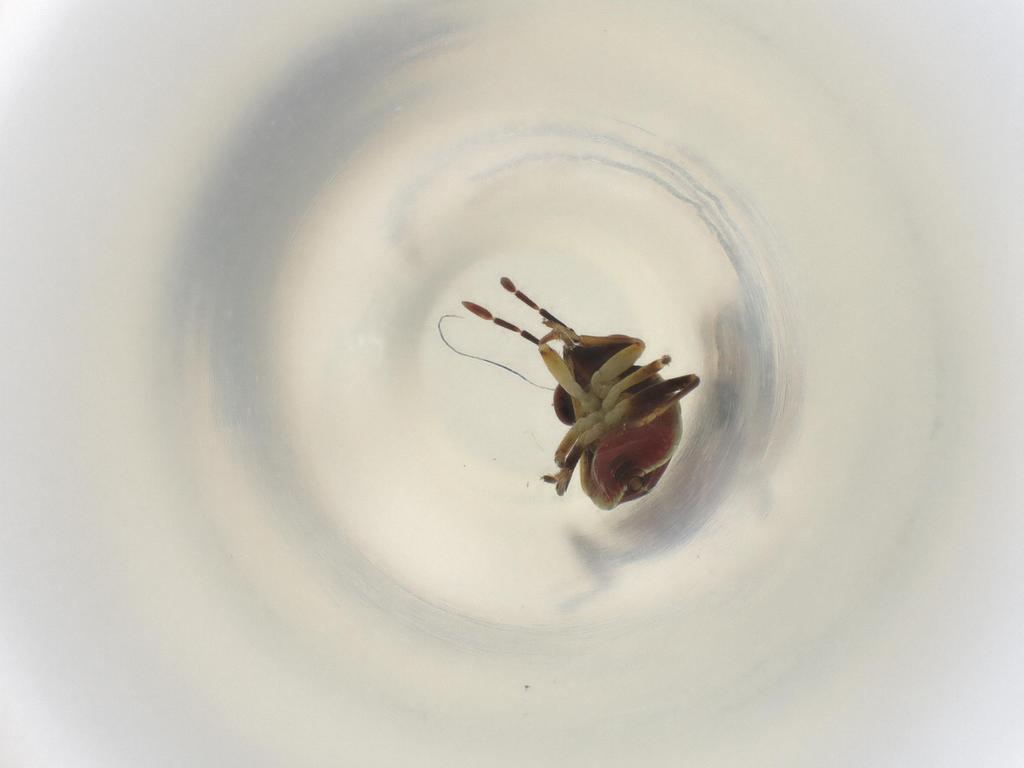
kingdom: Animalia
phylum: Arthropoda
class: Insecta
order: Hemiptera
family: Geocoridae
